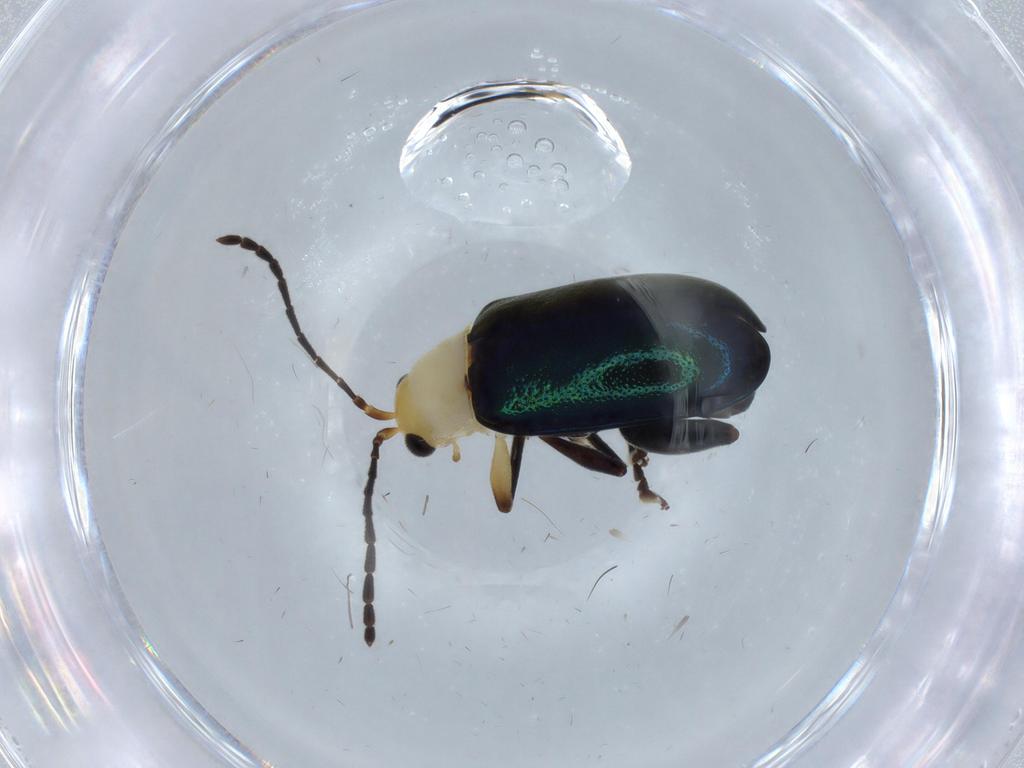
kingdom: Animalia
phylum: Arthropoda
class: Insecta
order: Coleoptera
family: Chrysomelidae
